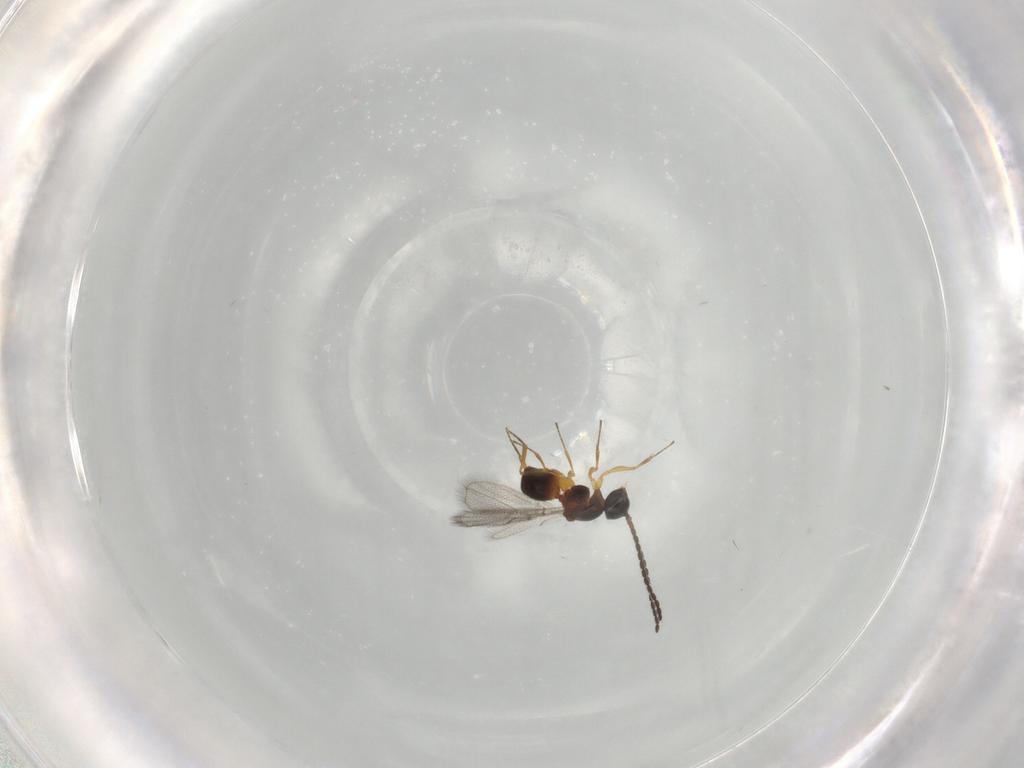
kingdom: Animalia
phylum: Arthropoda
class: Insecta
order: Hymenoptera
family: Figitidae
